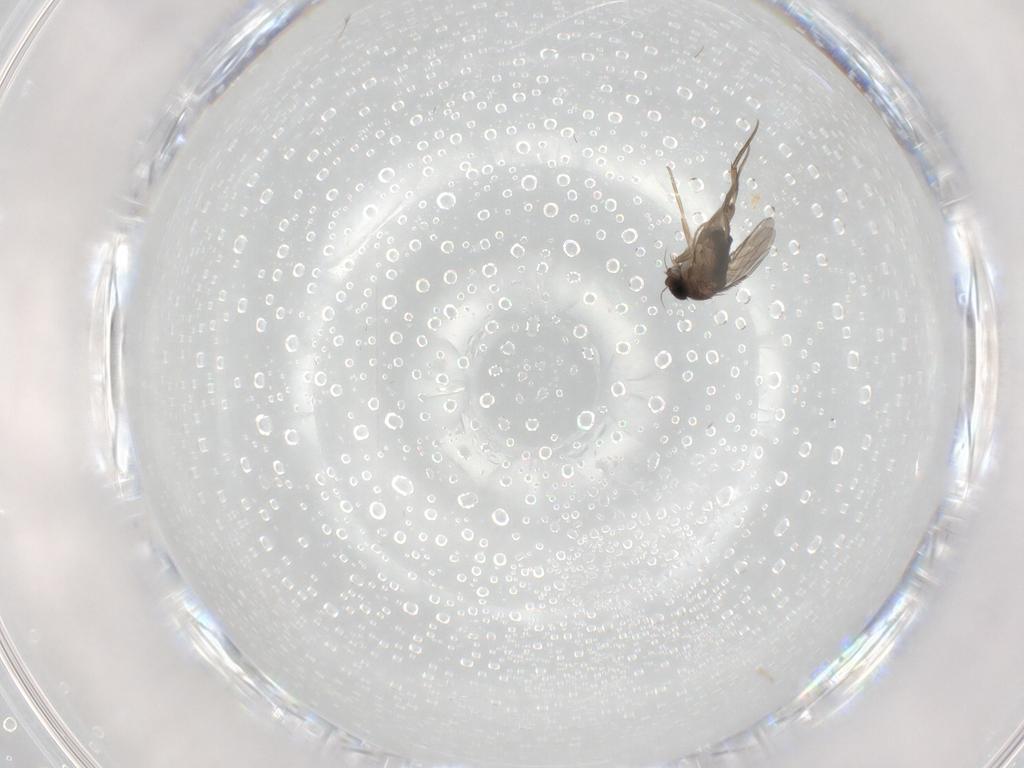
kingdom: Animalia
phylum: Arthropoda
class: Insecta
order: Diptera
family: Phoridae
